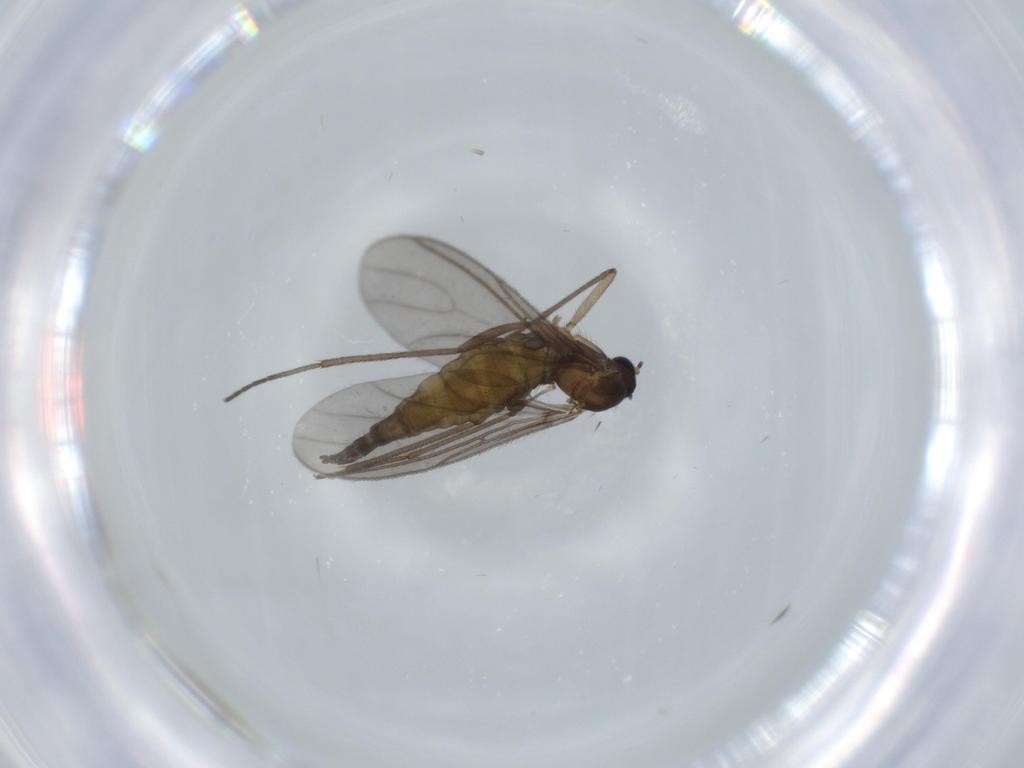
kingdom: Animalia
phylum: Arthropoda
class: Insecta
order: Diptera
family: Sciaridae
